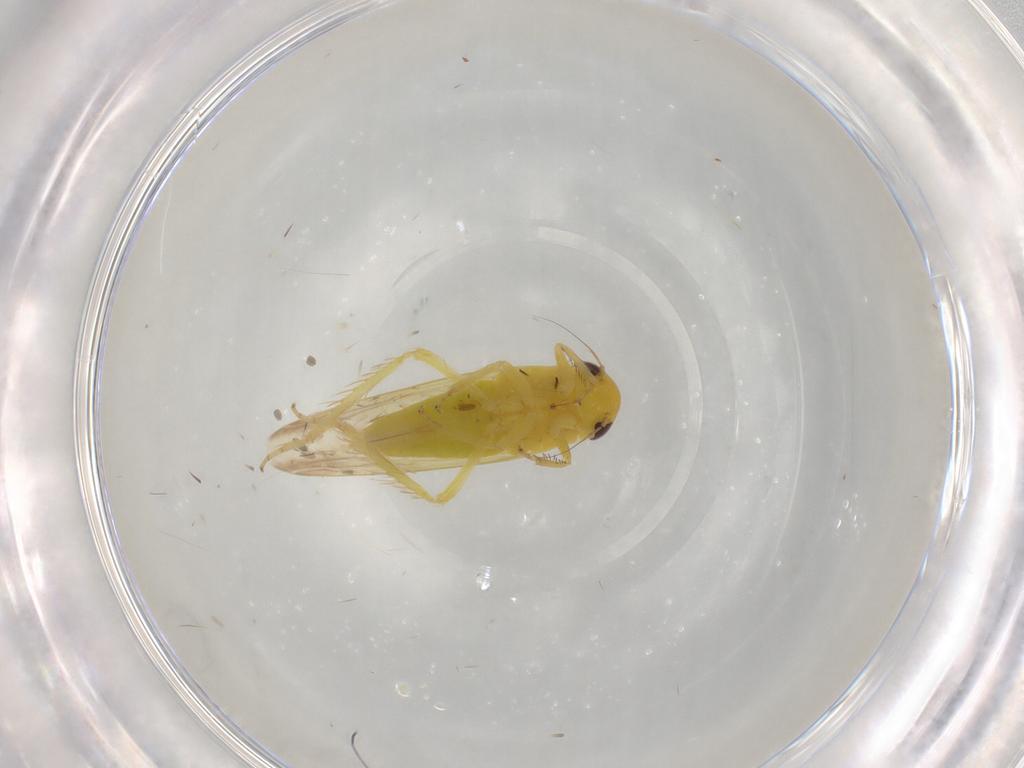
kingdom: Animalia
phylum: Arthropoda
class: Insecta
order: Hemiptera
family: Cicadellidae
